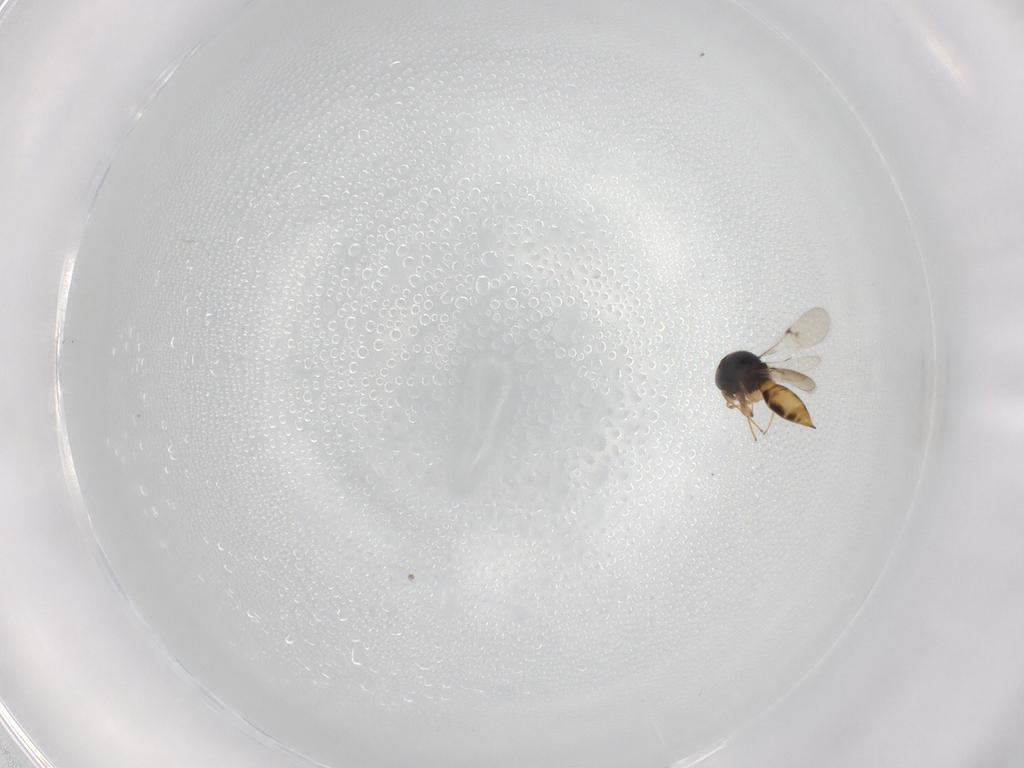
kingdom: Animalia
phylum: Arthropoda
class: Insecta
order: Hymenoptera
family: Scelionidae
